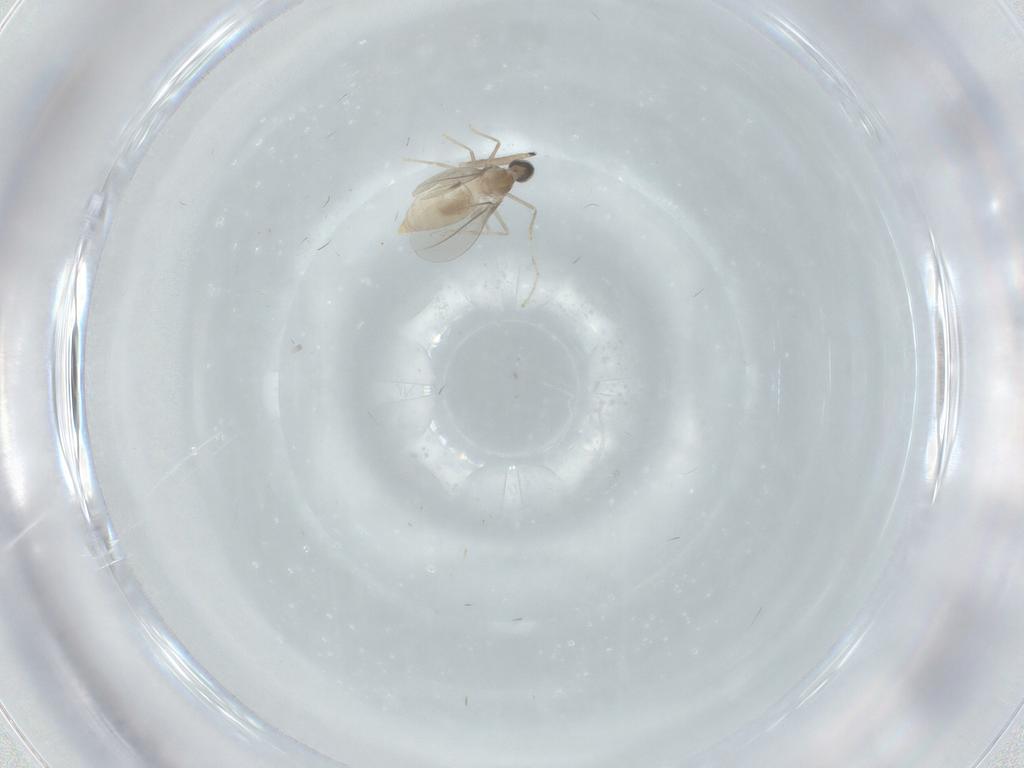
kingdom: Animalia
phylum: Arthropoda
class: Insecta
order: Diptera
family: Cecidomyiidae
